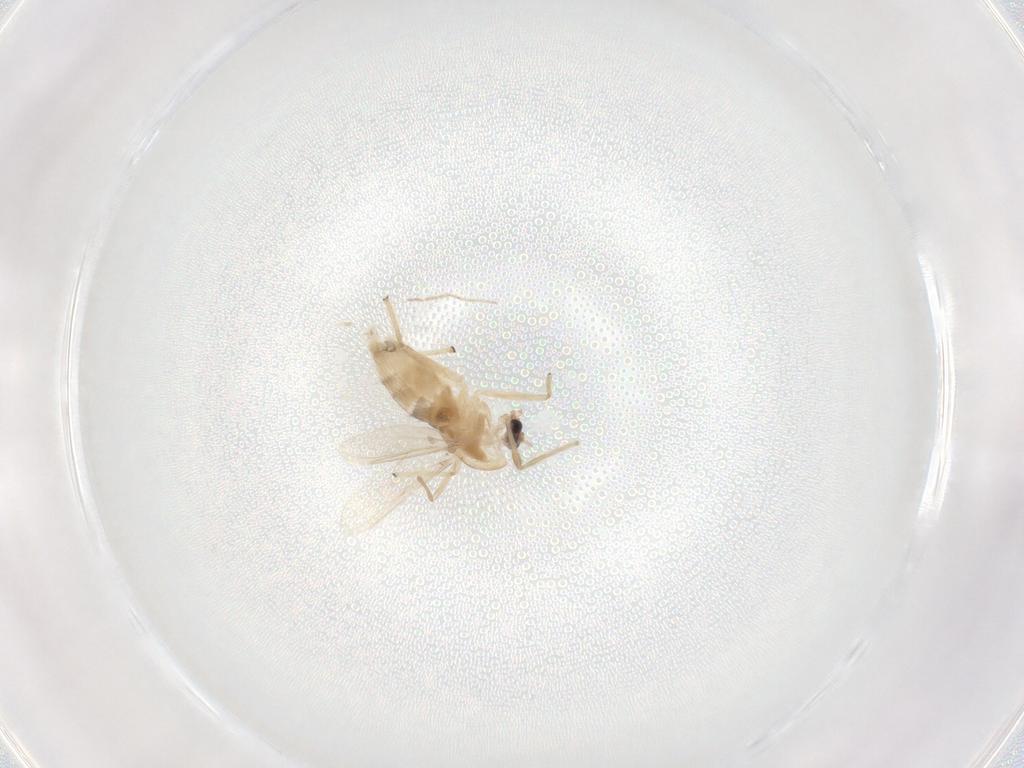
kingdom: Animalia
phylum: Arthropoda
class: Insecta
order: Diptera
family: Chironomidae
